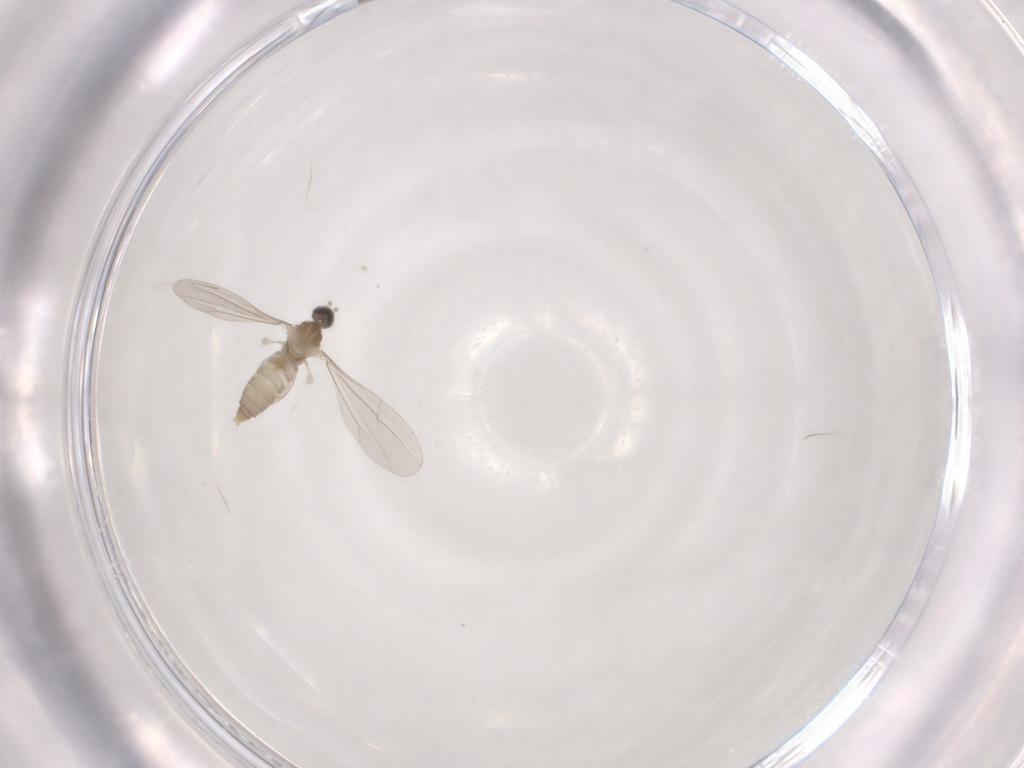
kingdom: Animalia
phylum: Arthropoda
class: Insecta
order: Diptera
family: Cecidomyiidae
